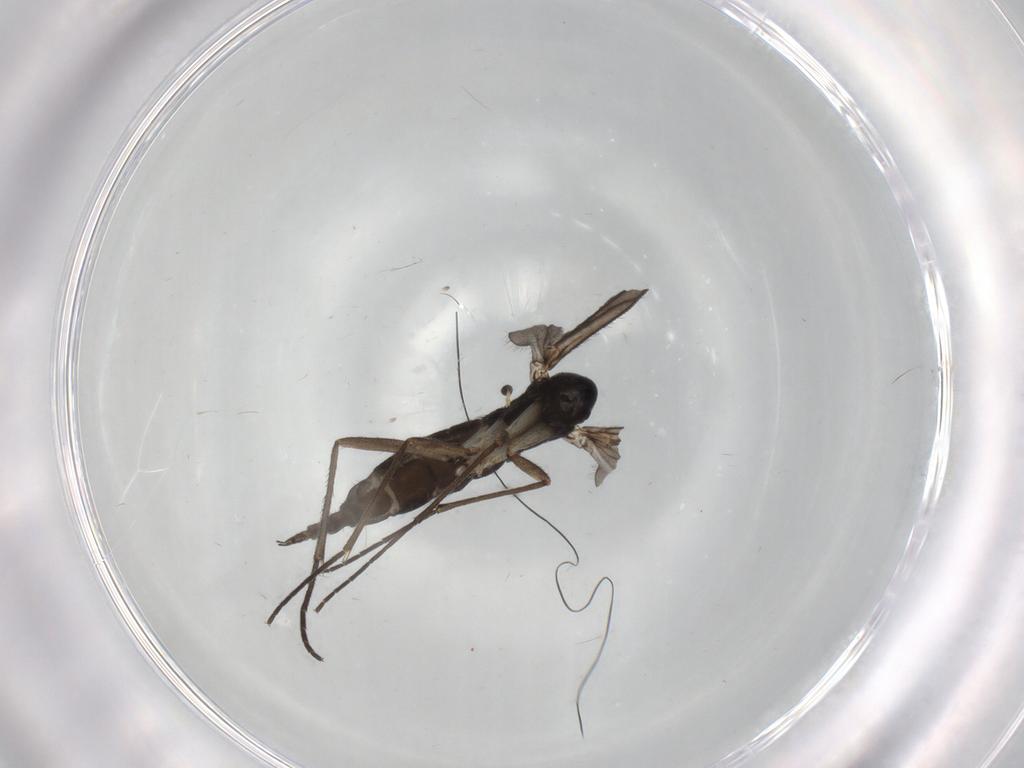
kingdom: Animalia
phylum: Arthropoda
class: Insecta
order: Diptera
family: Sciaridae
